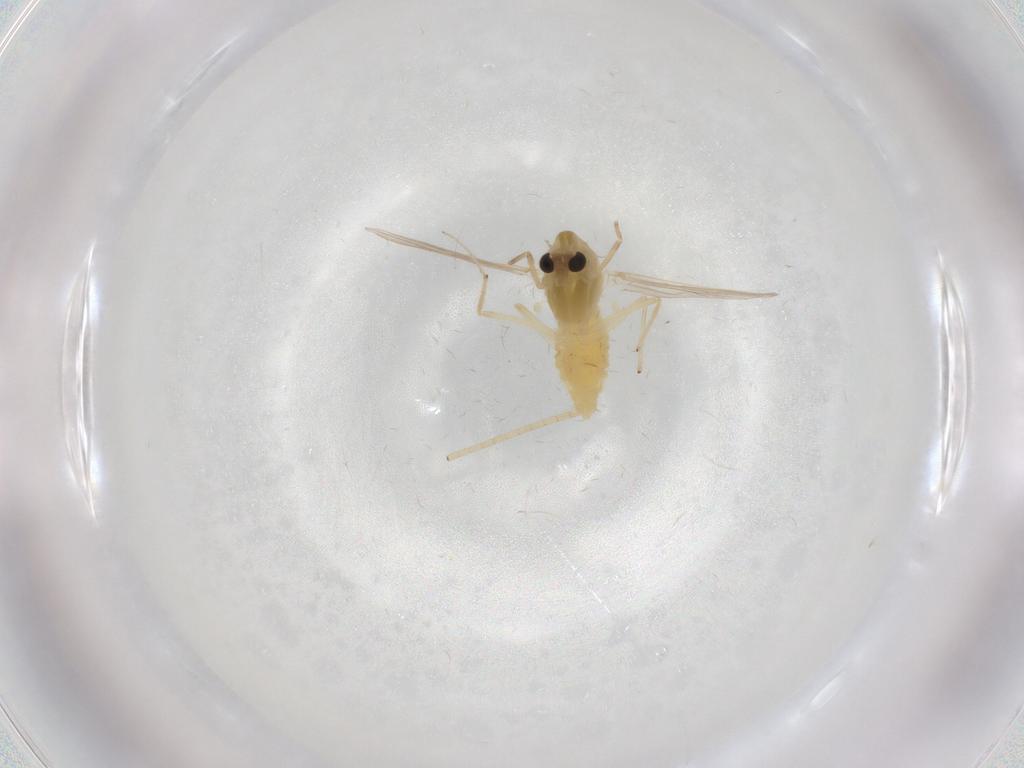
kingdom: Animalia
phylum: Arthropoda
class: Insecta
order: Diptera
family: Chironomidae
